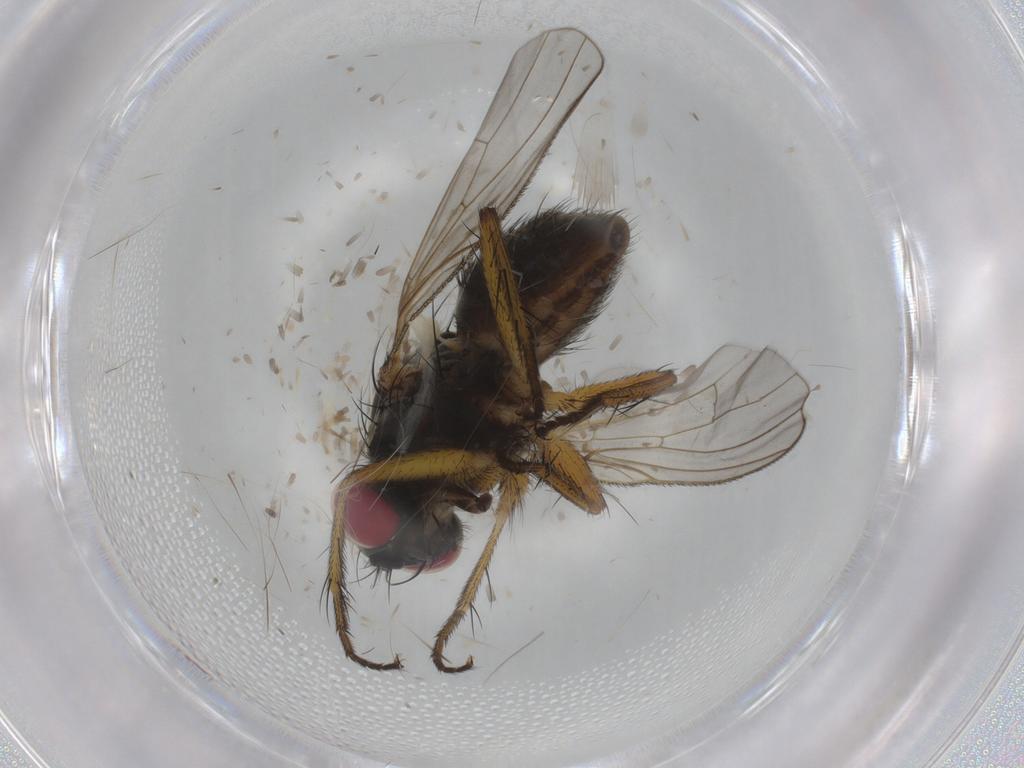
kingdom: Animalia
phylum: Arthropoda
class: Insecta
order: Diptera
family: Muscidae
